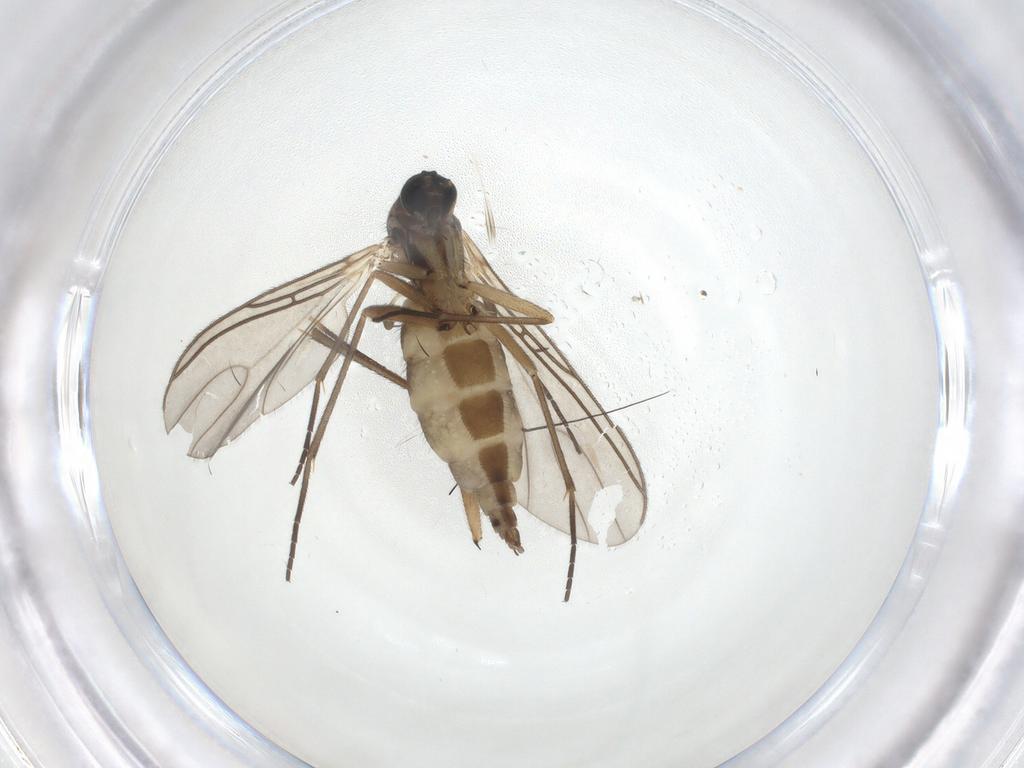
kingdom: Animalia
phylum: Arthropoda
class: Insecta
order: Diptera
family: Sciaridae
